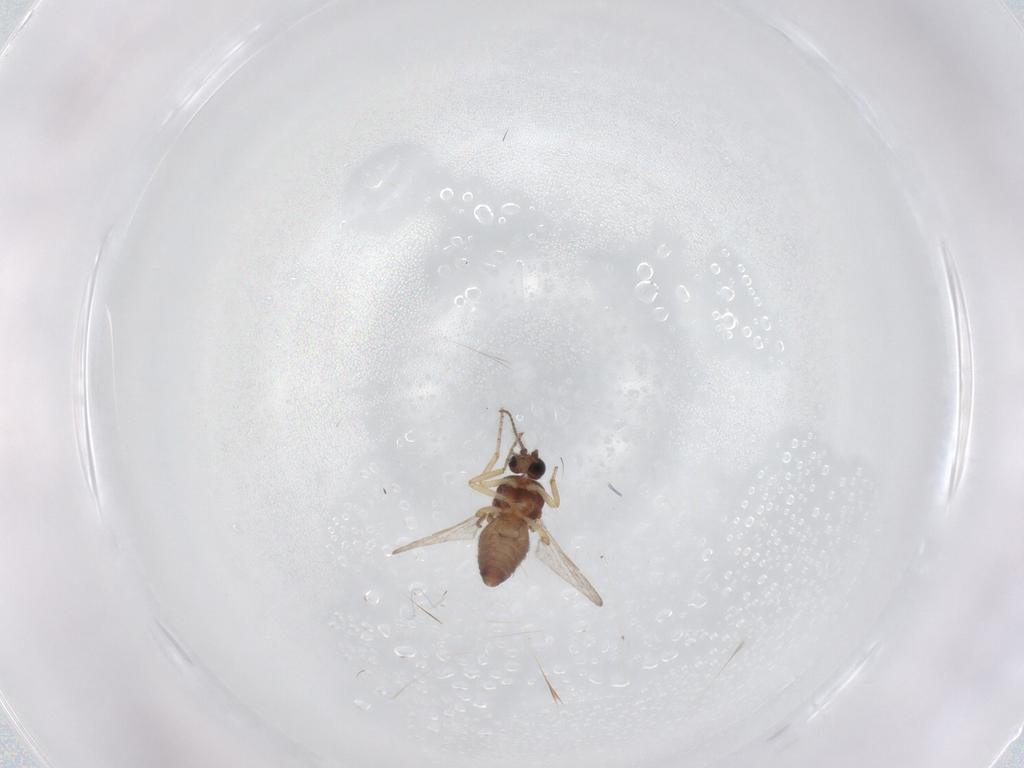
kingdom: Animalia
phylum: Arthropoda
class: Insecta
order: Diptera
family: Ceratopogonidae
